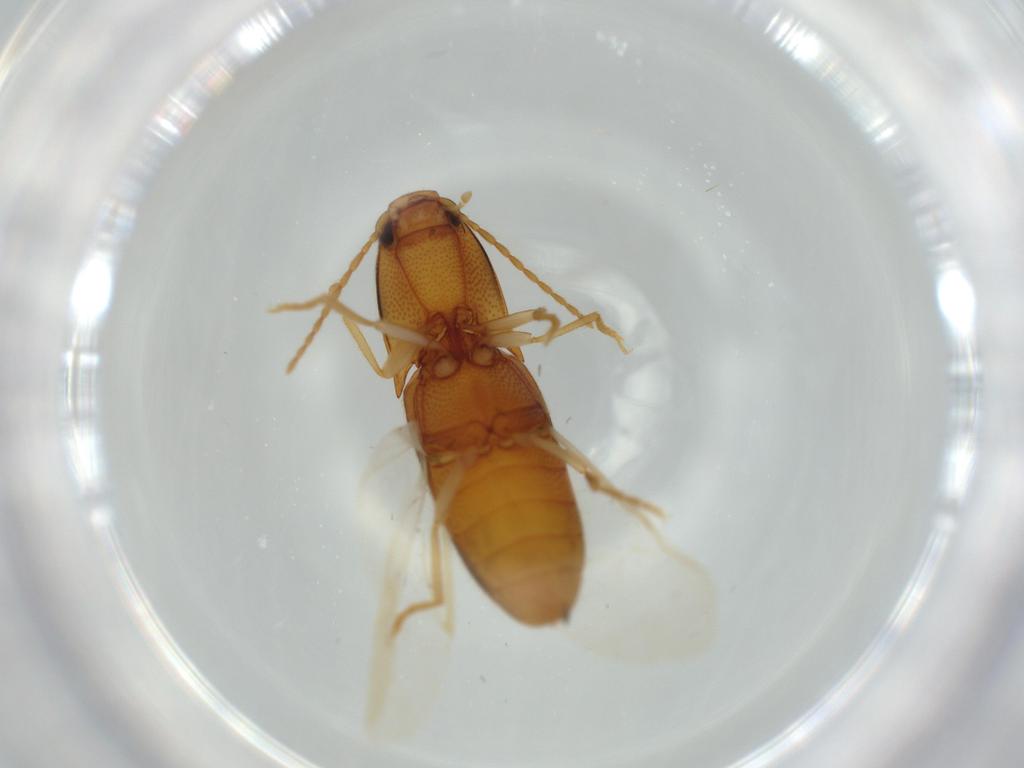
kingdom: Animalia
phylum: Arthropoda
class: Insecta
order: Coleoptera
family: Elateridae
